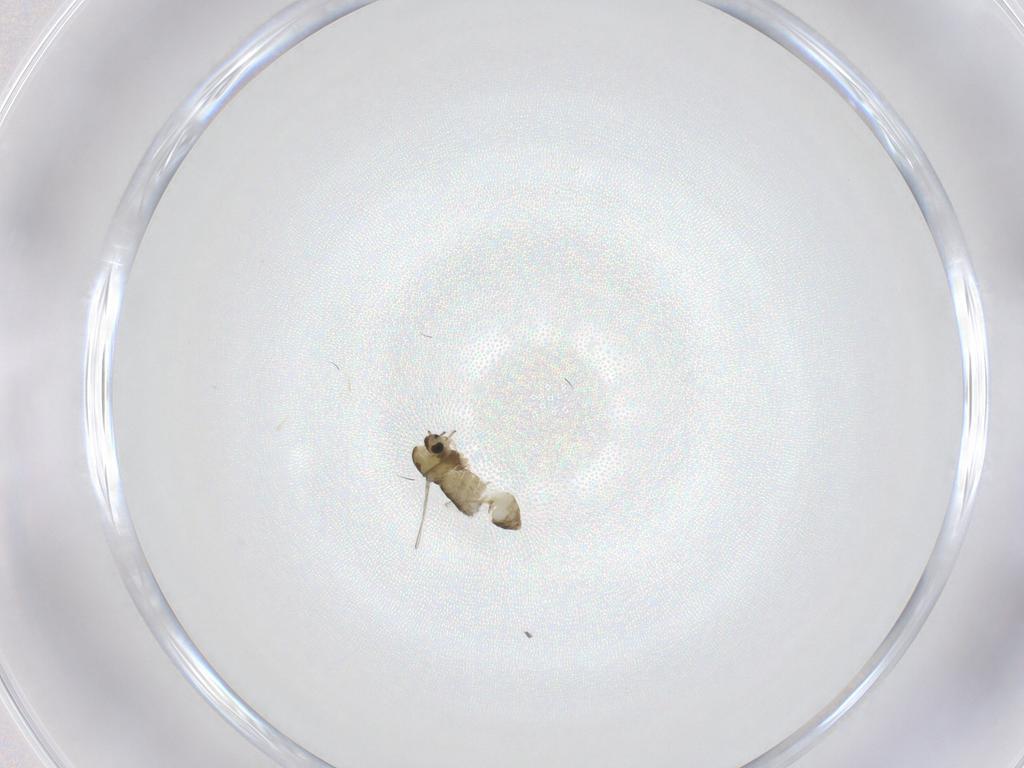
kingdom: Animalia
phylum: Arthropoda
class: Insecta
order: Diptera
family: Chironomidae
